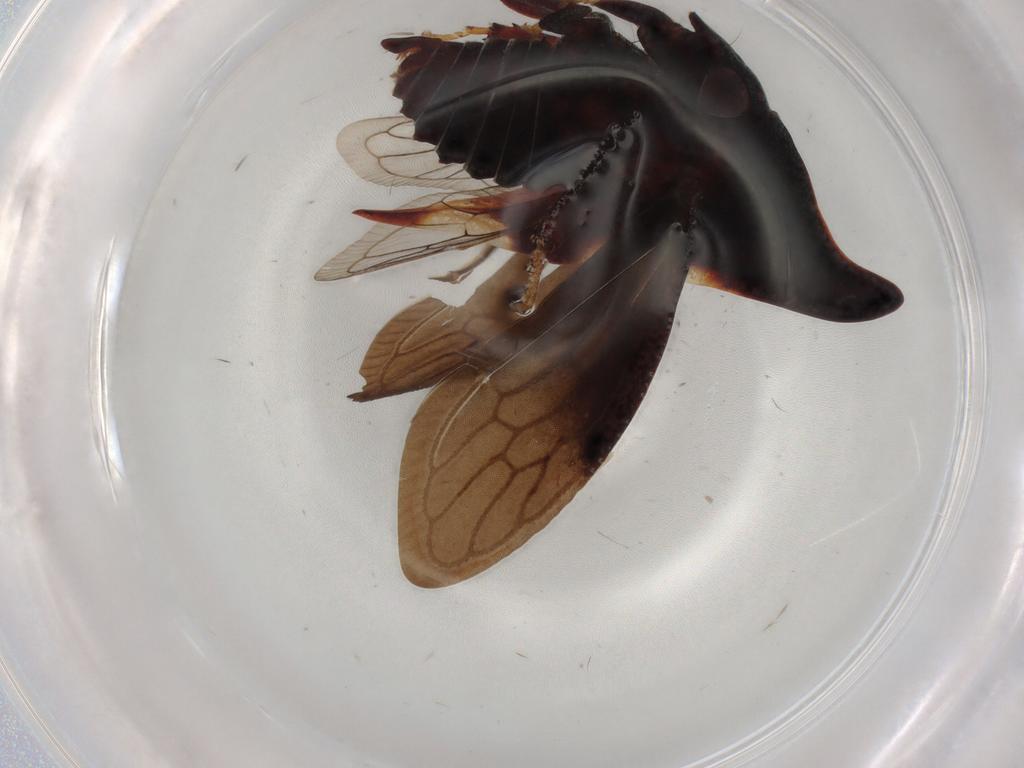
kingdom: Animalia
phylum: Arthropoda
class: Insecta
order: Hemiptera
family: Membracidae
